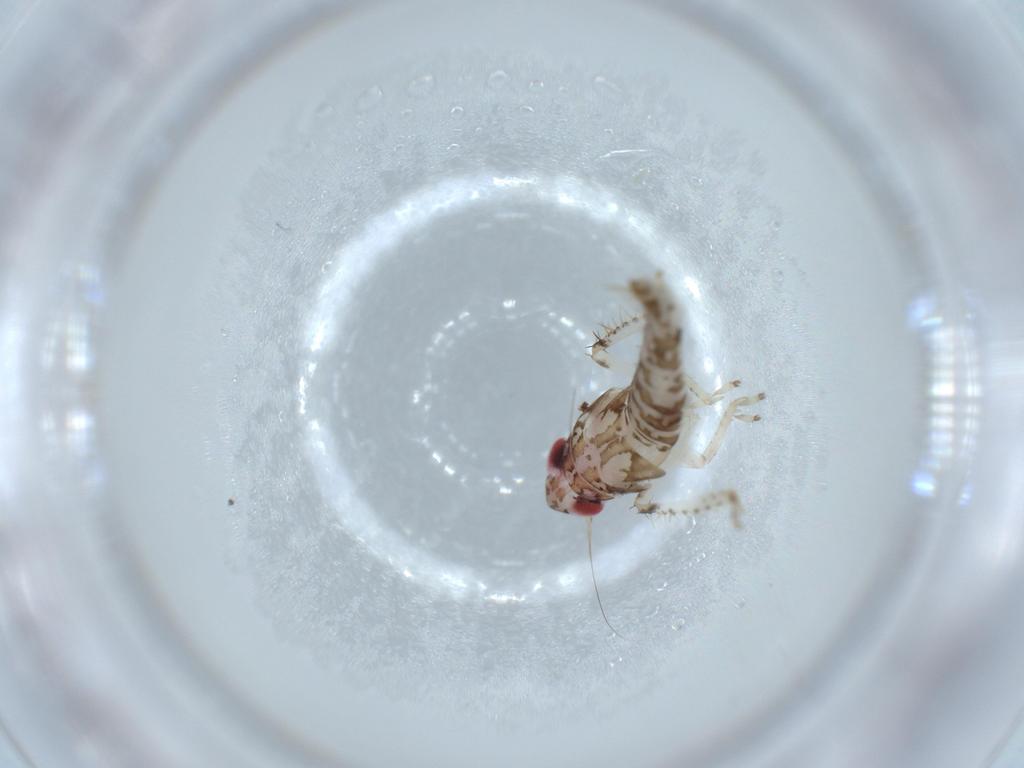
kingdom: Animalia
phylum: Arthropoda
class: Insecta
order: Hemiptera
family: Cicadellidae
